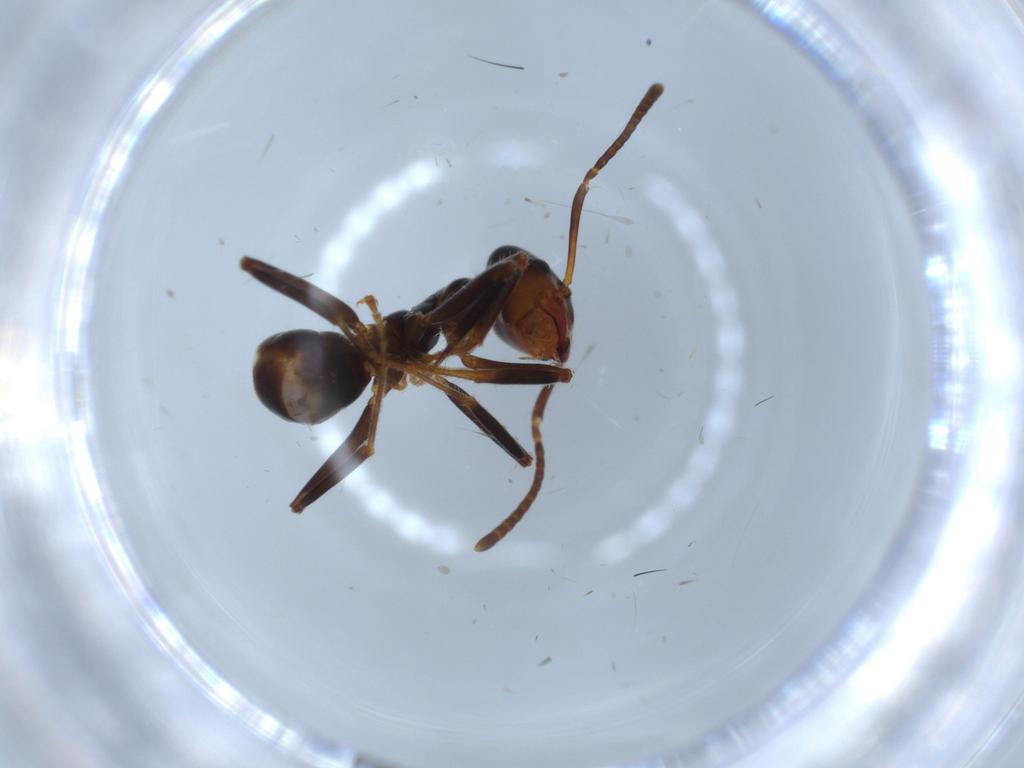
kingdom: Animalia
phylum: Arthropoda
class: Insecta
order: Hymenoptera
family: Formicidae
